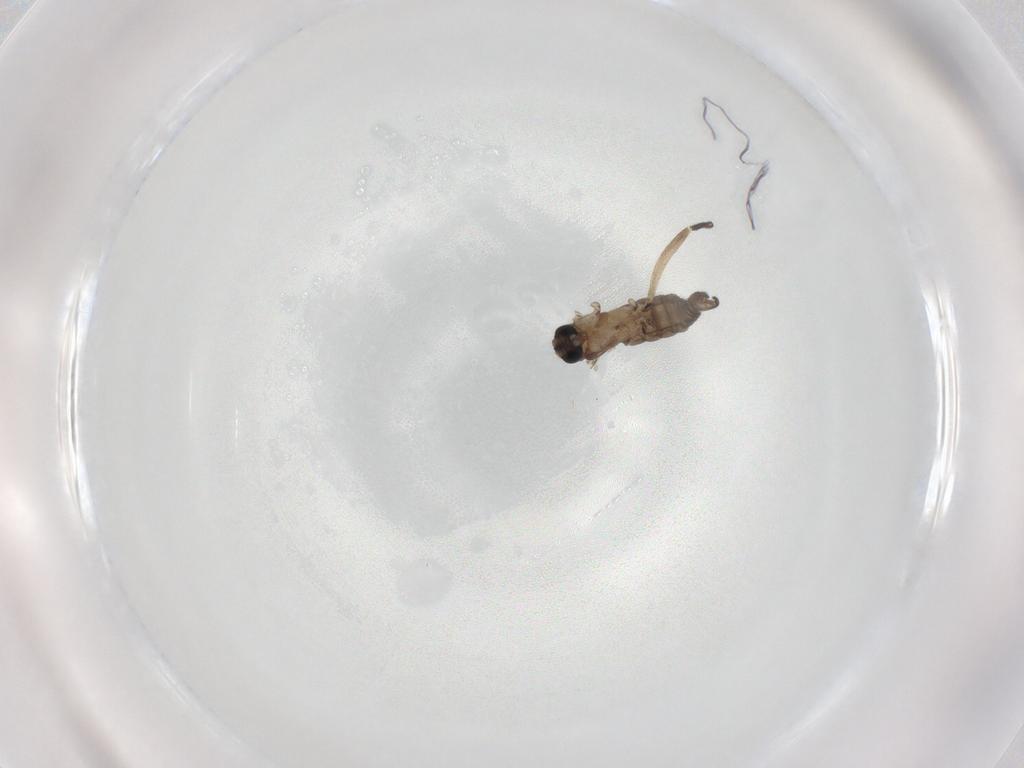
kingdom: Animalia
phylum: Arthropoda
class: Insecta
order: Diptera
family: Sciaridae
